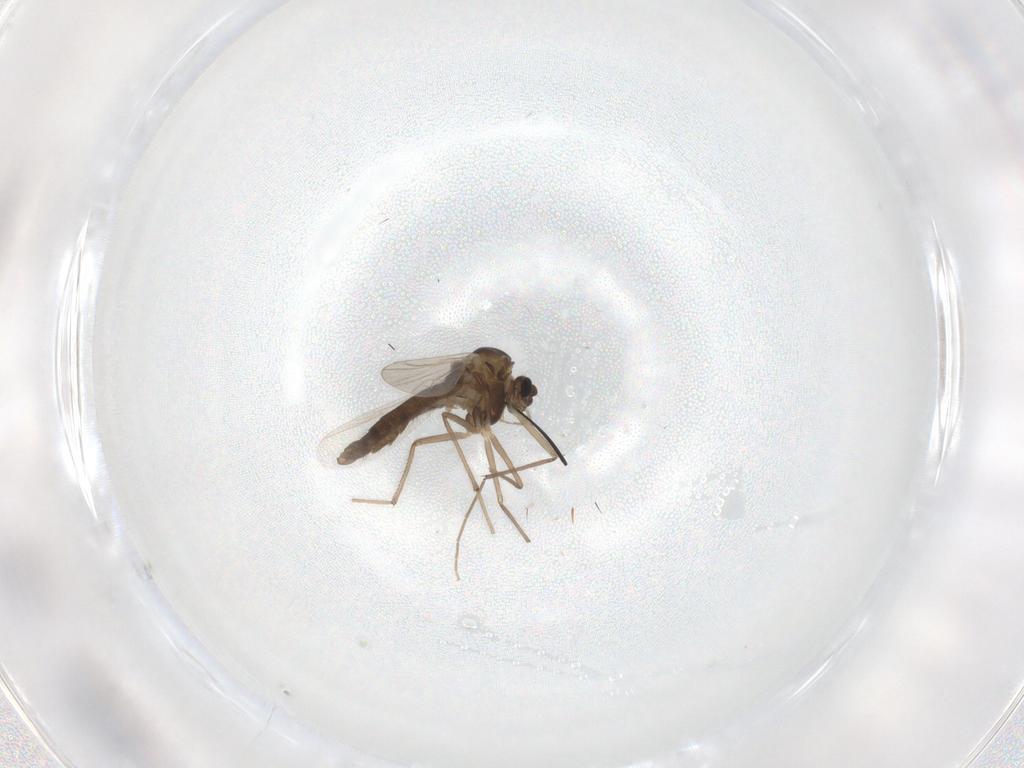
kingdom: Animalia
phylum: Arthropoda
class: Insecta
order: Diptera
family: Chironomidae
